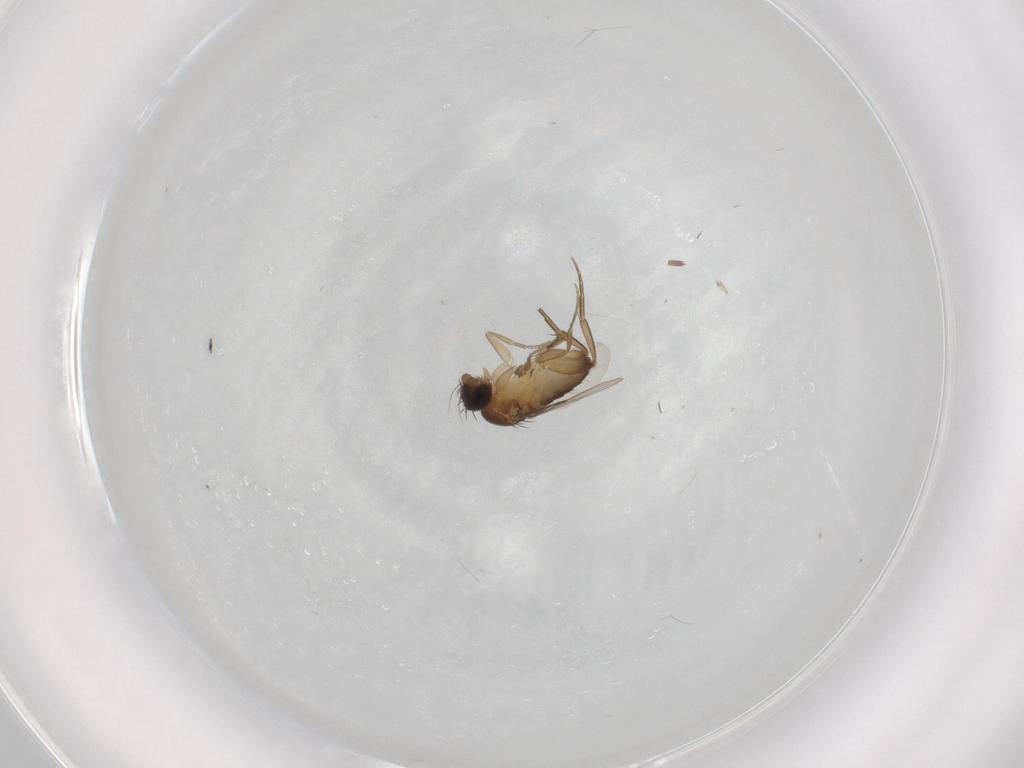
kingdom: Animalia
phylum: Arthropoda
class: Insecta
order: Diptera
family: Phoridae
